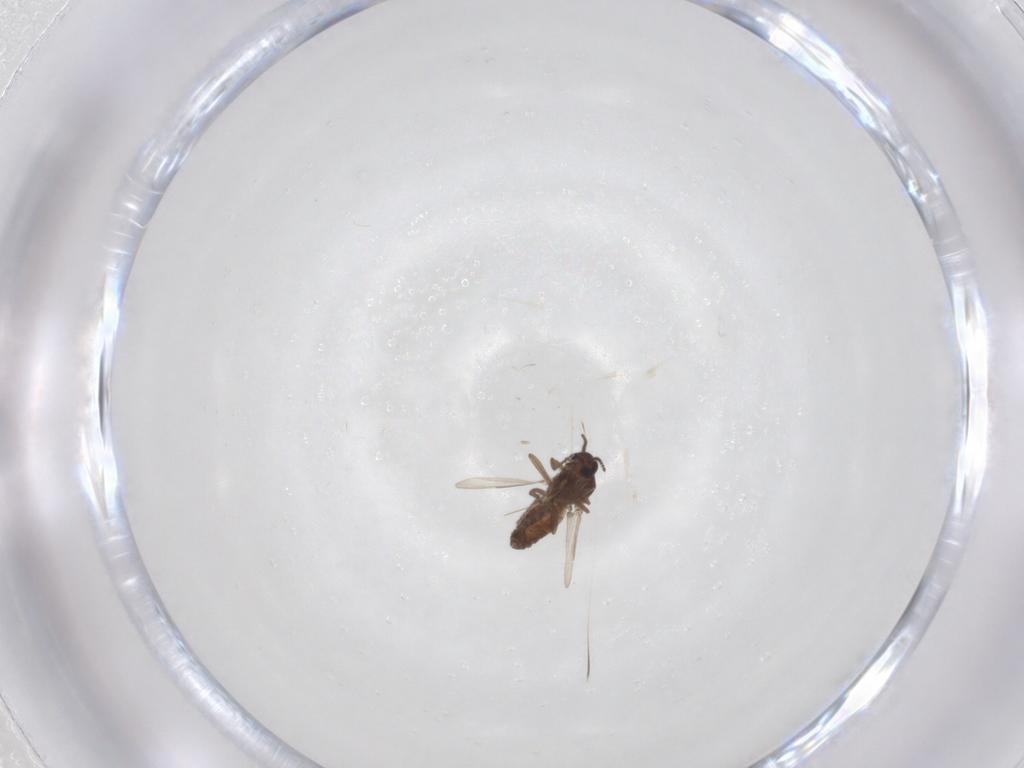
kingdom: Animalia
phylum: Arthropoda
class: Insecta
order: Diptera
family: Ceratopogonidae
